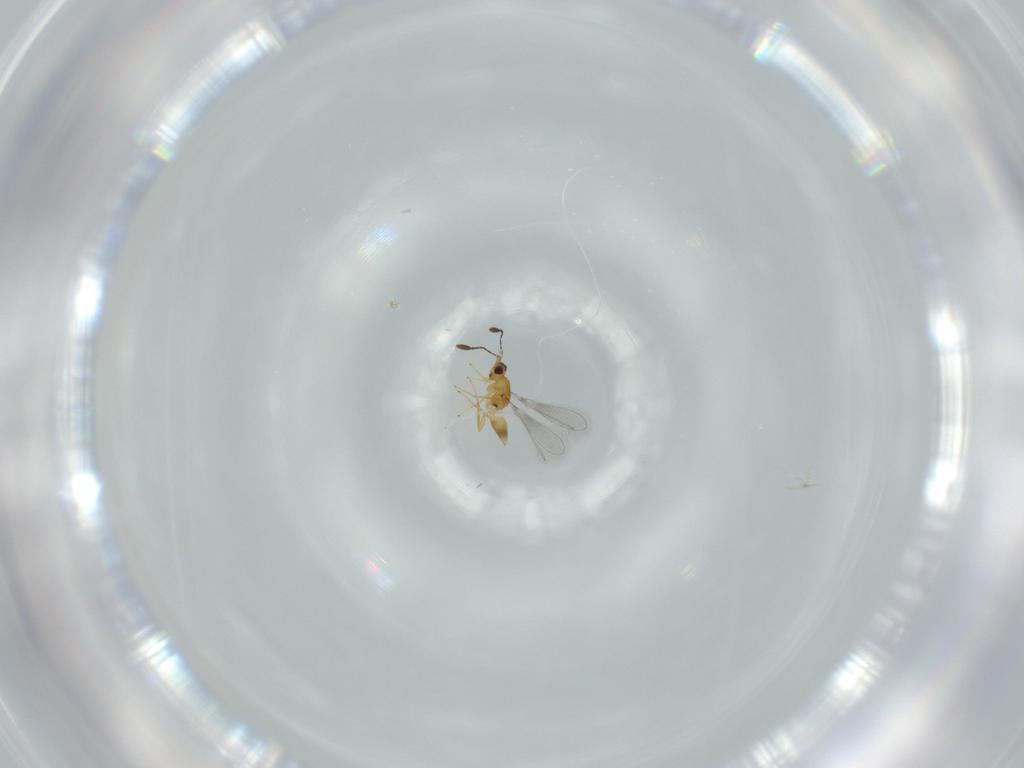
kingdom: Animalia
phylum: Arthropoda
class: Insecta
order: Hymenoptera
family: Mymaridae
